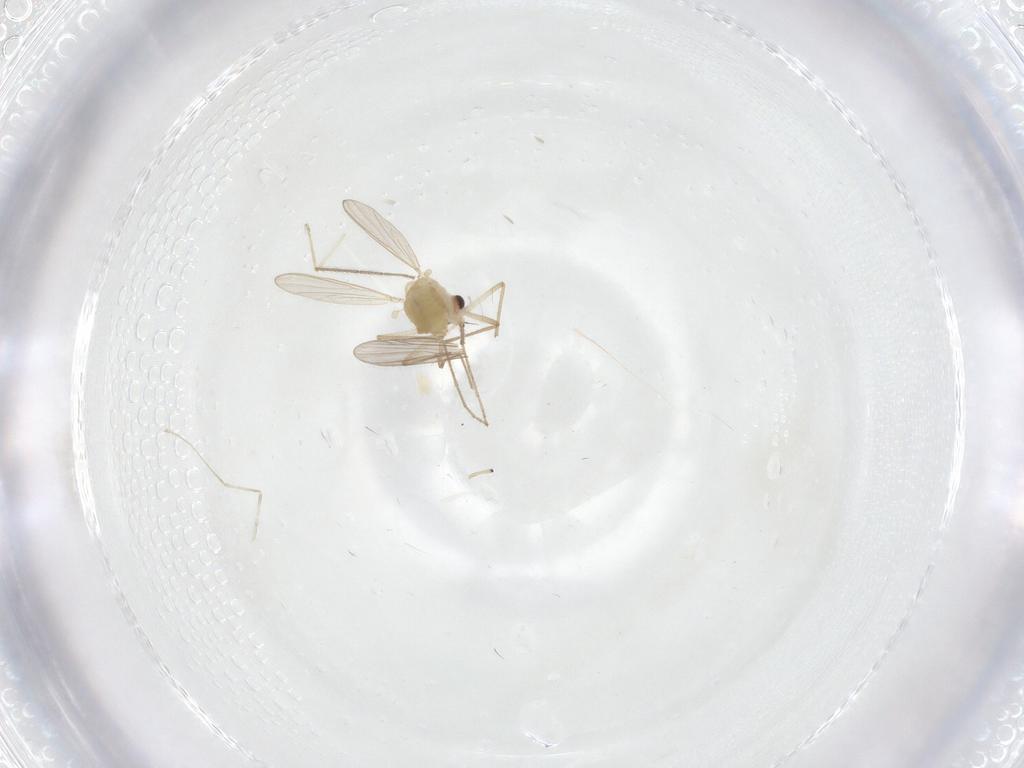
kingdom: Animalia
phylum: Arthropoda
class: Insecta
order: Diptera
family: Cecidomyiidae
